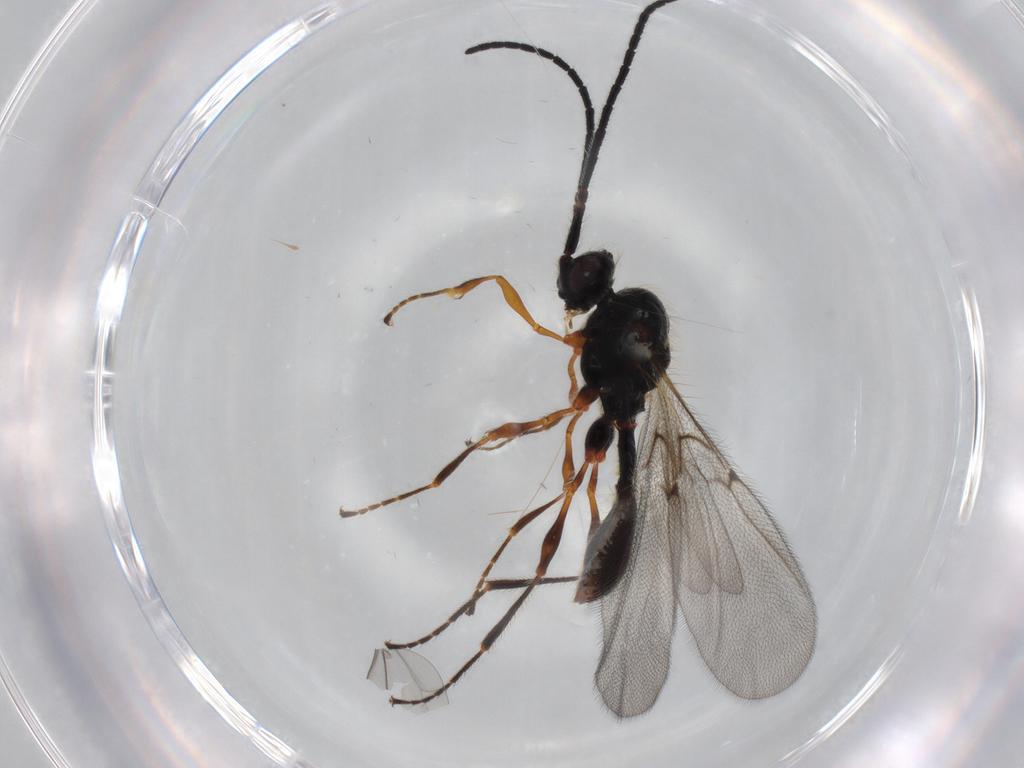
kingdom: Animalia
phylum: Arthropoda
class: Insecta
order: Hymenoptera
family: Diapriidae
